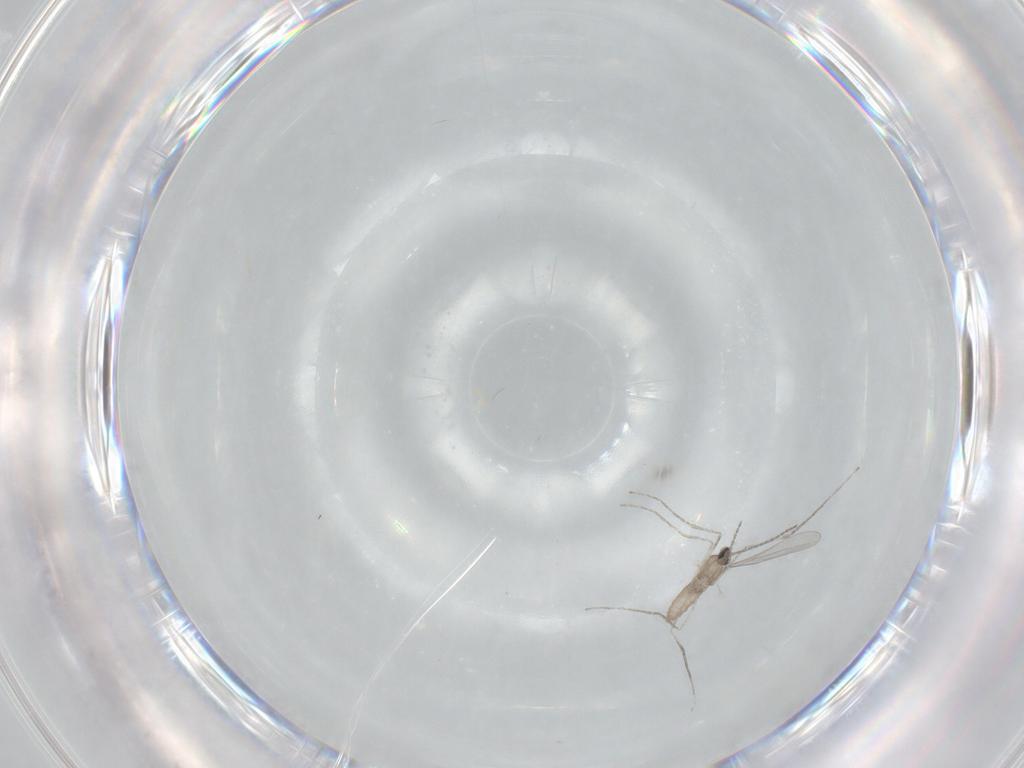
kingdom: Animalia
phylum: Arthropoda
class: Insecta
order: Diptera
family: Cecidomyiidae
